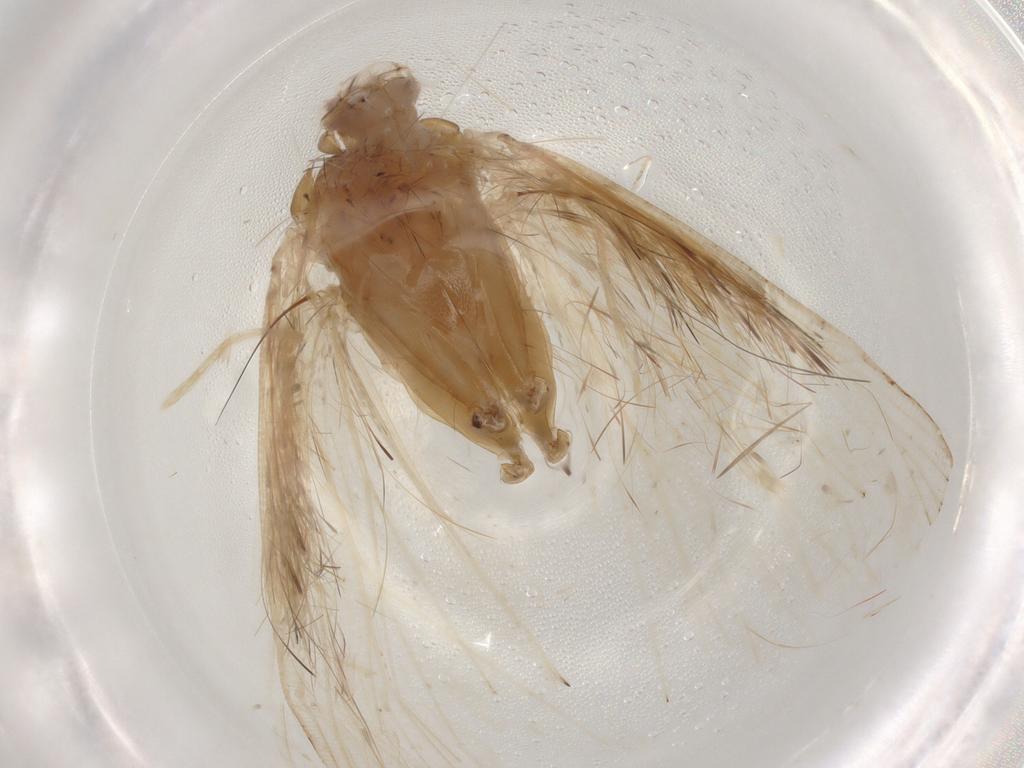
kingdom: Animalia
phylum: Arthropoda
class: Insecta
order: Lepidoptera
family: Erebidae
